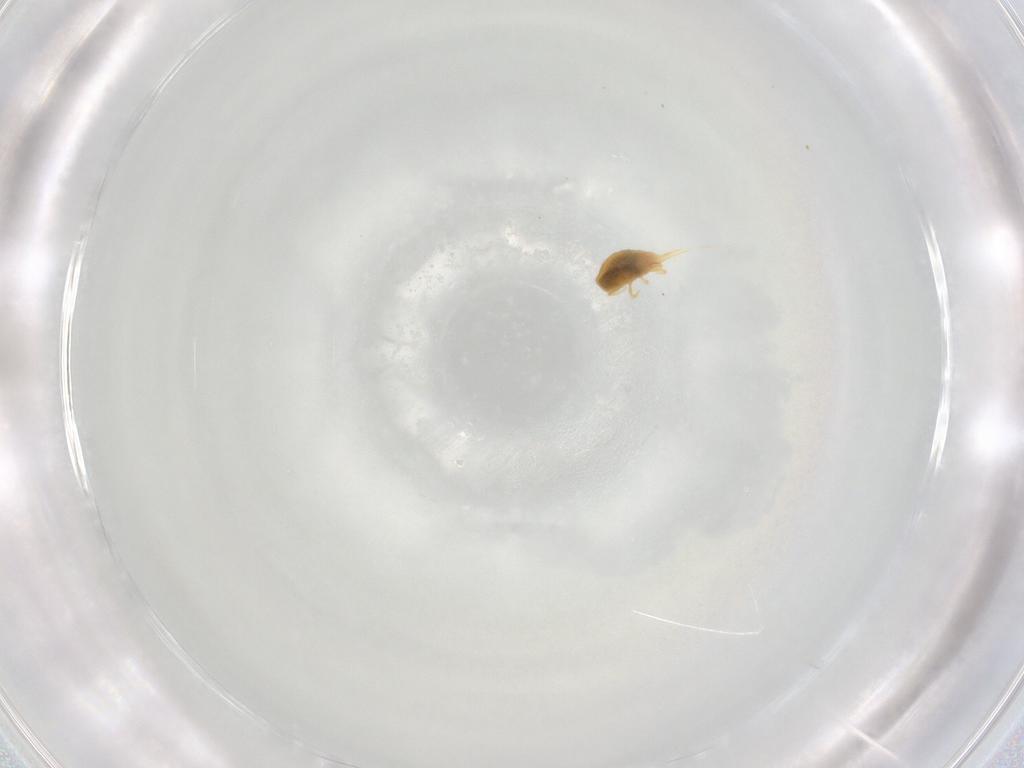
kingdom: Animalia
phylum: Arthropoda
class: Arachnida
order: Trombidiformes
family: Tetranychidae
